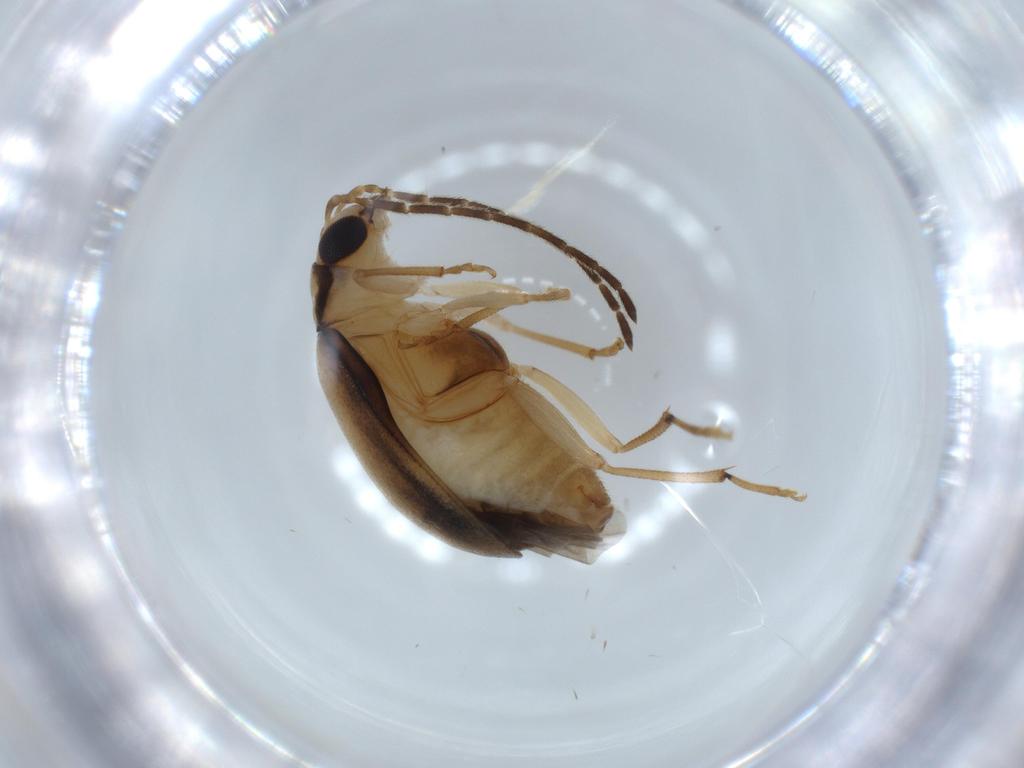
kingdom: Animalia
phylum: Arthropoda
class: Insecta
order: Coleoptera
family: Chrysomelidae
